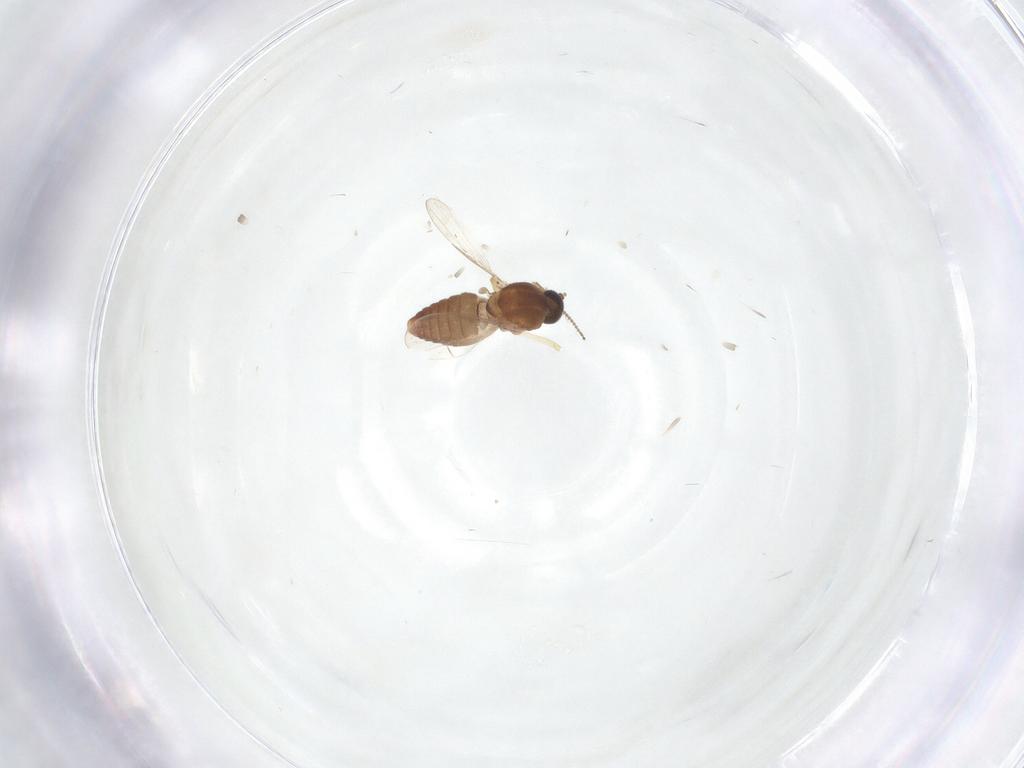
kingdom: Animalia
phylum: Arthropoda
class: Insecta
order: Diptera
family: Ceratopogonidae
